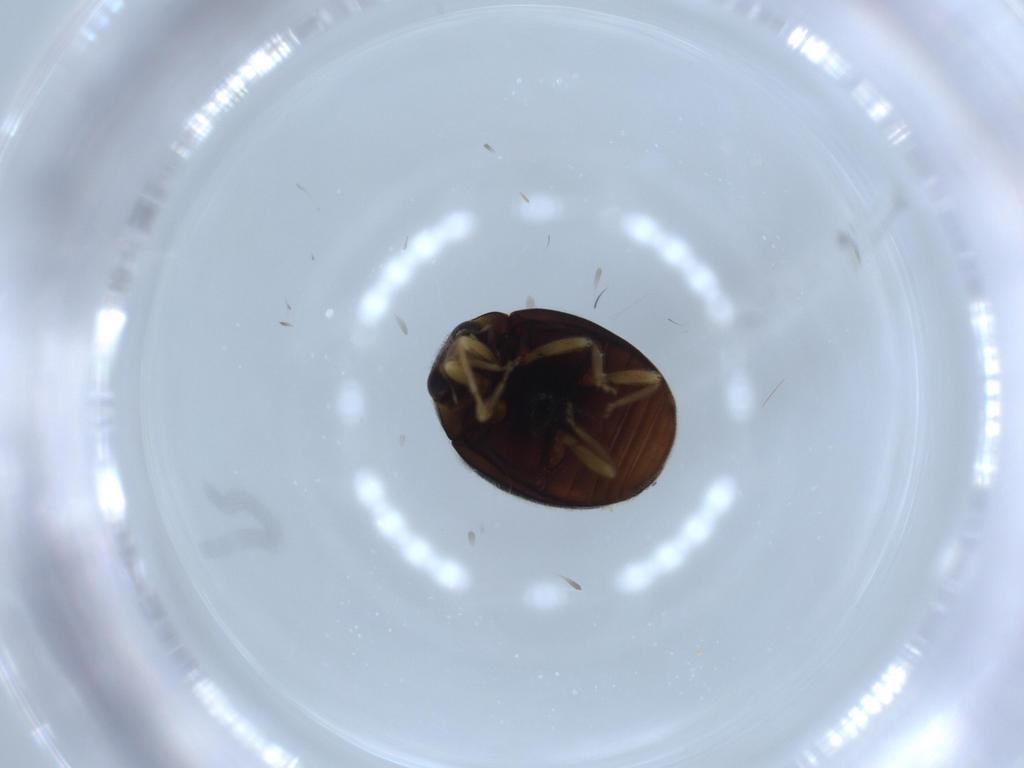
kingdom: Animalia
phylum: Arthropoda
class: Insecta
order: Coleoptera
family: Coccinellidae
